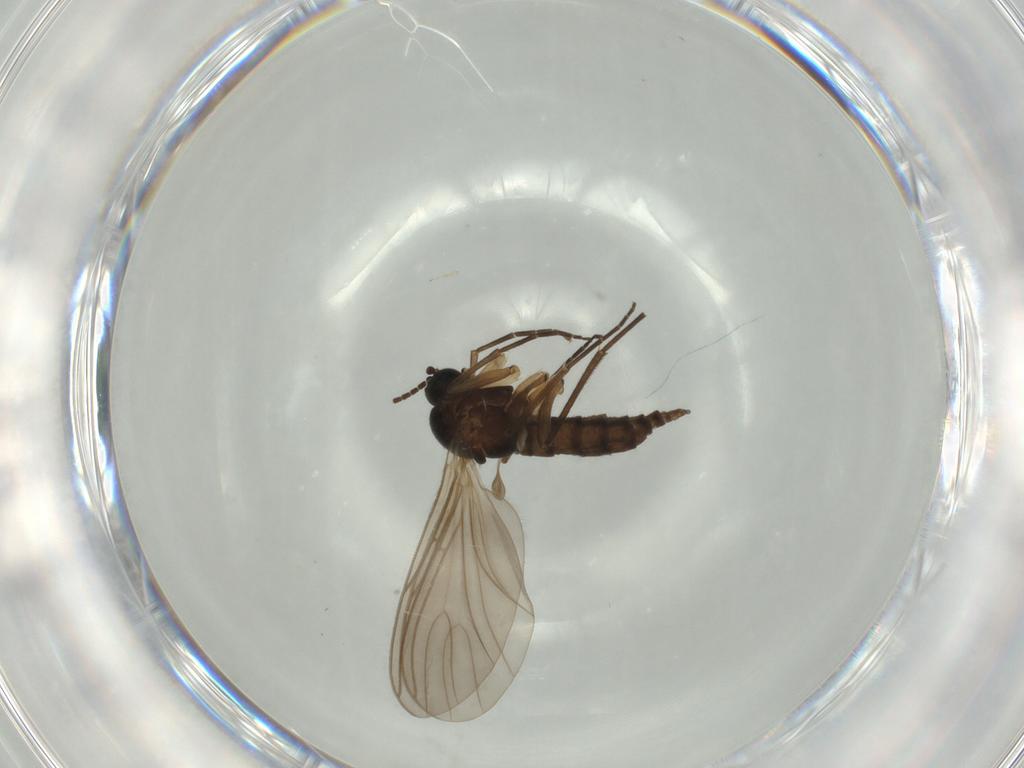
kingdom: Animalia
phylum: Arthropoda
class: Insecta
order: Diptera
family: Sciaridae
